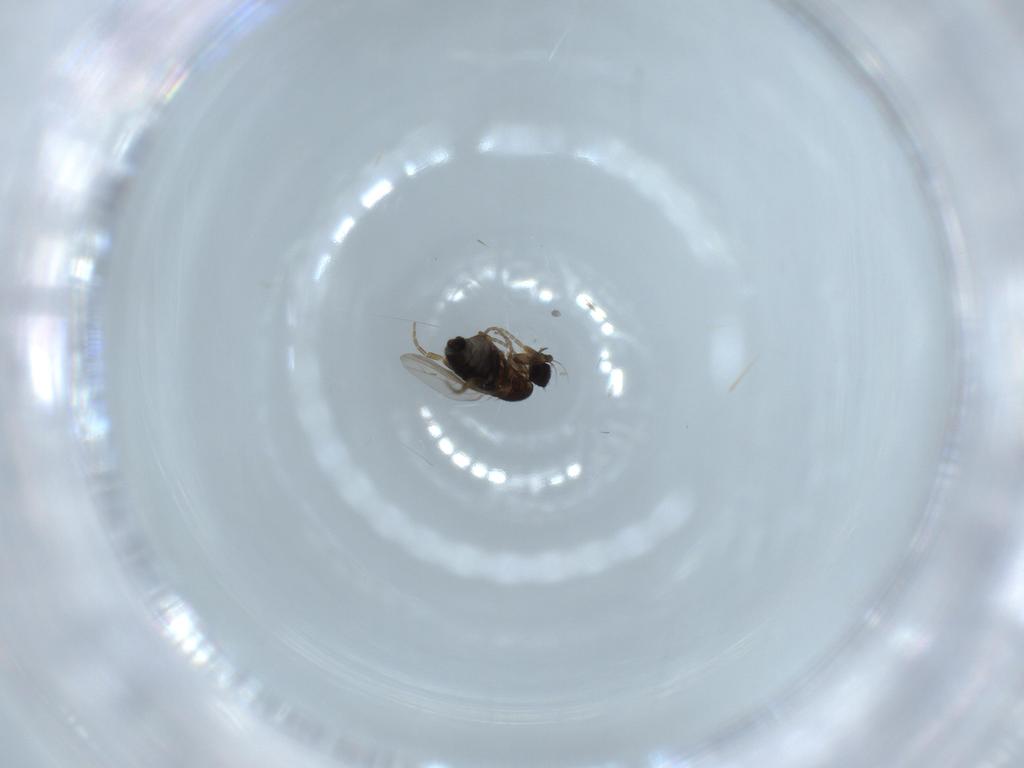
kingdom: Animalia
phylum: Arthropoda
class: Insecta
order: Diptera
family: Phoridae
